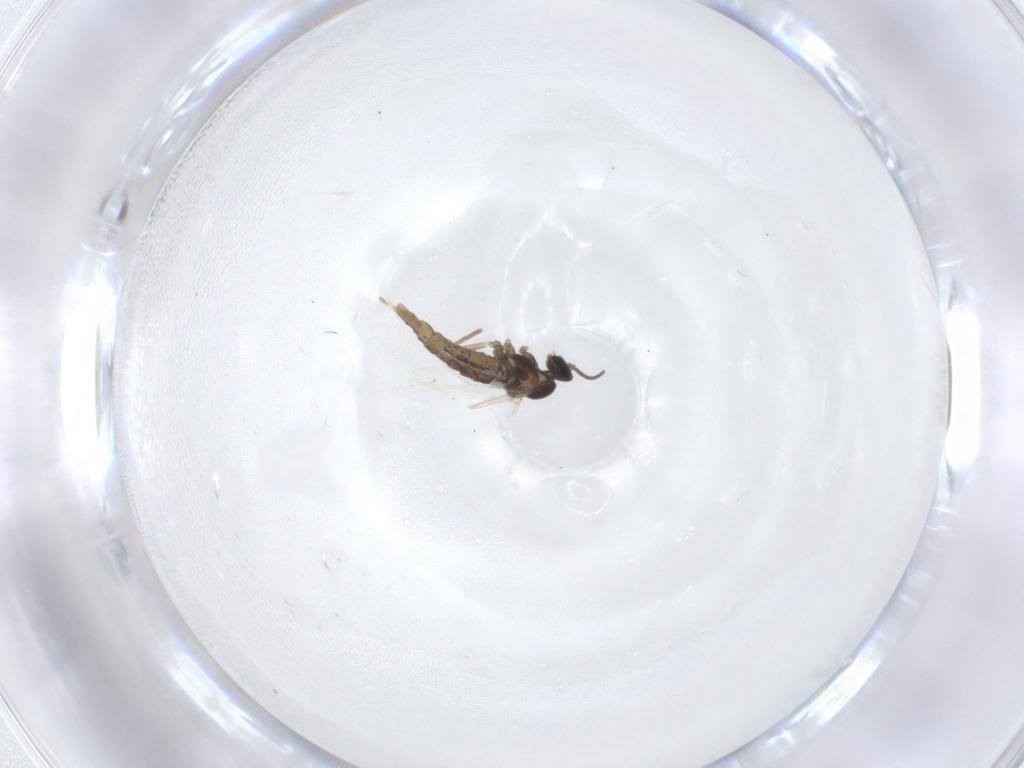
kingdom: Animalia
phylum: Arthropoda
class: Insecta
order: Diptera
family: Cecidomyiidae
